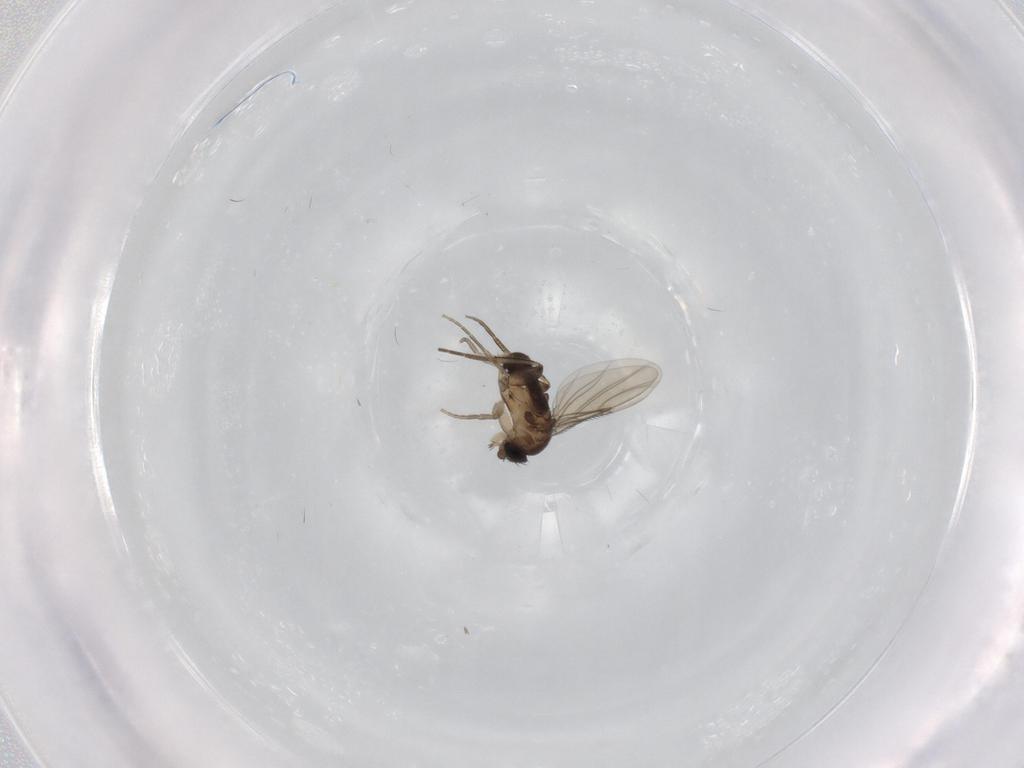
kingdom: Animalia
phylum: Arthropoda
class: Insecta
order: Diptera
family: Phoridae
